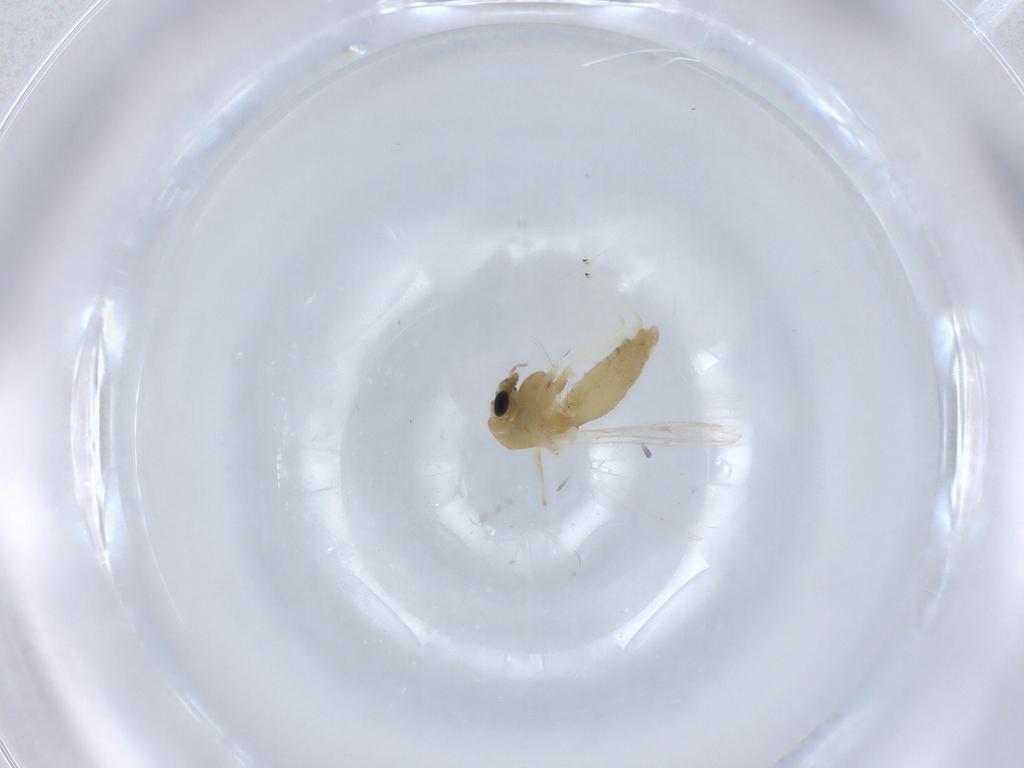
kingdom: Animalia
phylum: Arthropoda
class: Insecta
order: Diptera
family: Chironomidae
